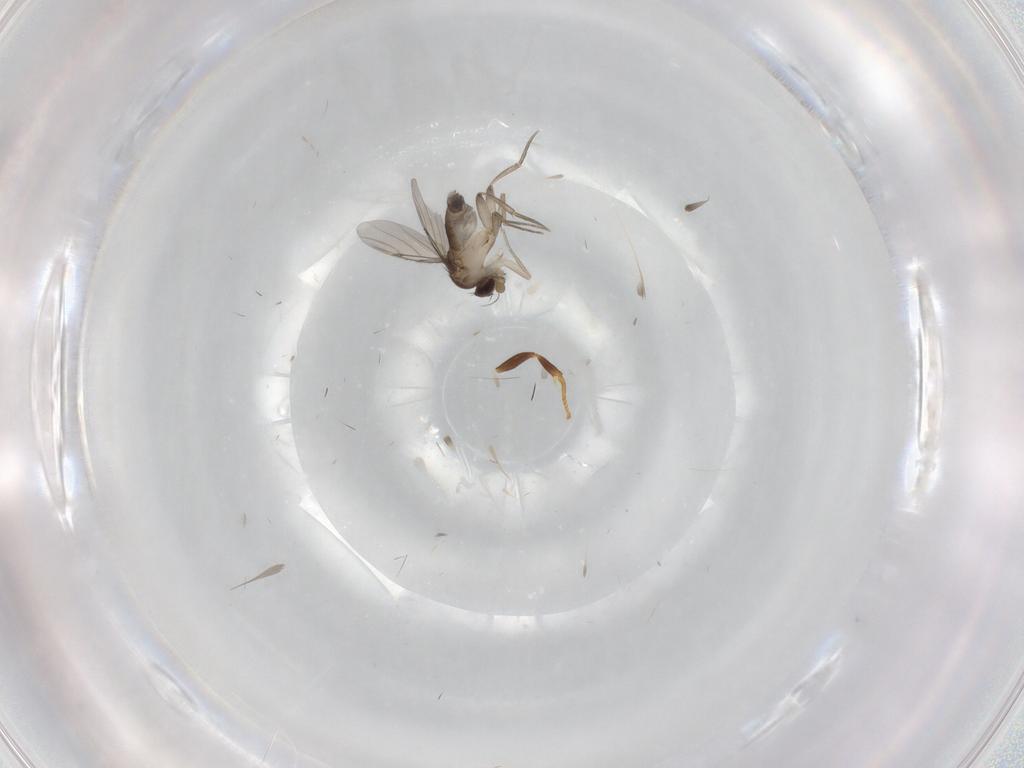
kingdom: Animalia
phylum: Arthropoda
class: Insecta
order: Diptera
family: Phoridae
